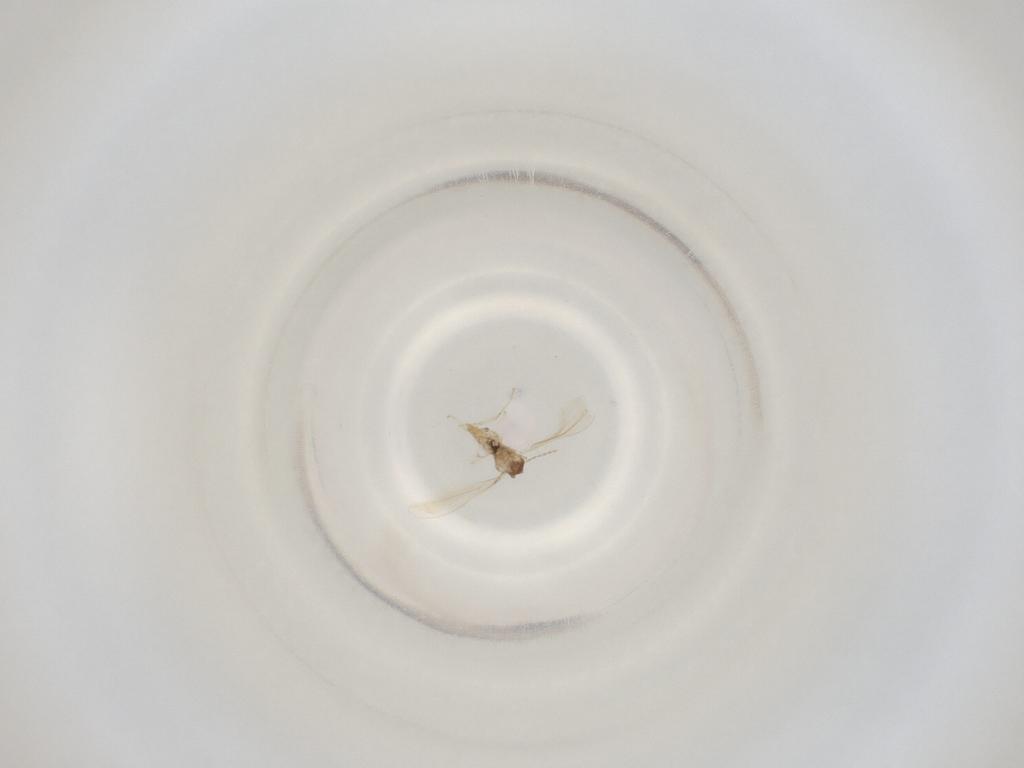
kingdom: Animalia
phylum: Arthropoda
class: Insecta
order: Diptera
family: Cecidomyiidae
